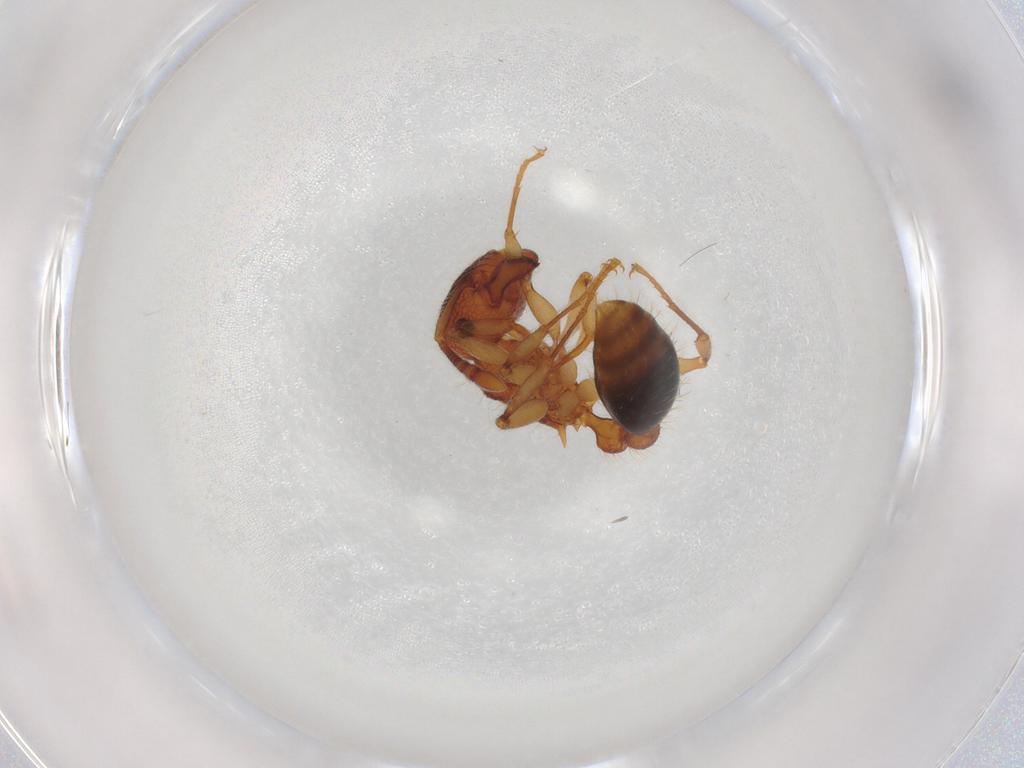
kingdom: Animalia
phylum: Arthropoda
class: Insecta
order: Hymenoptera
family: Formicidae
